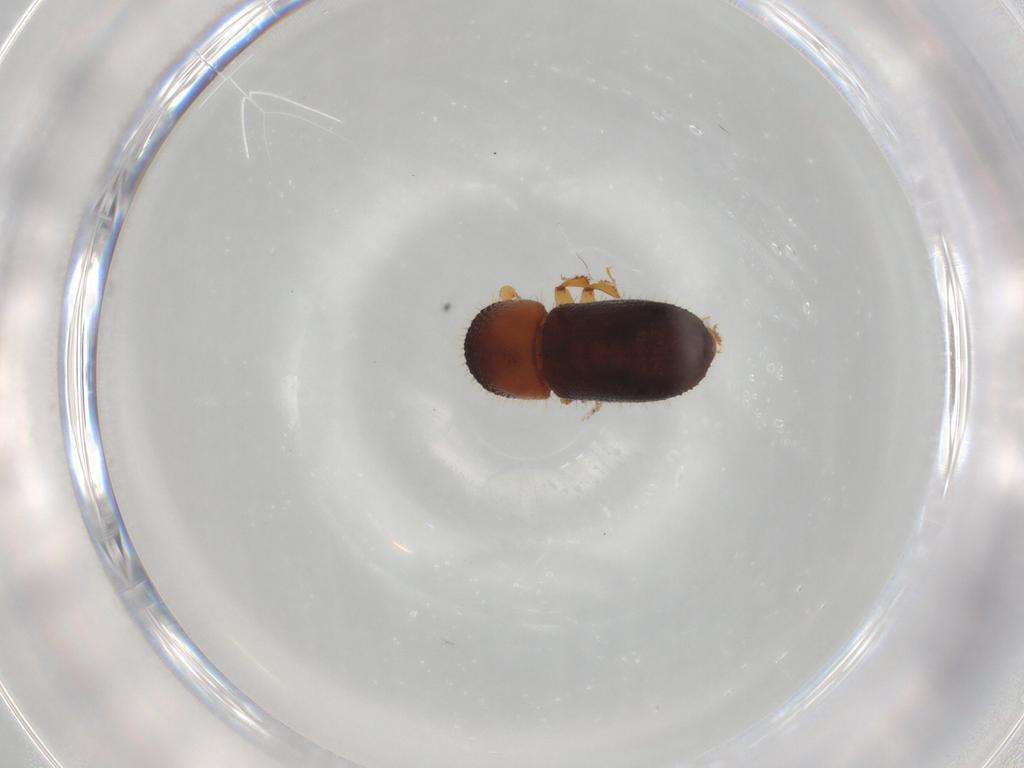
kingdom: Animalia
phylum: Arthropoda
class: Insecta
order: Coleoptera
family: Curculionidae
